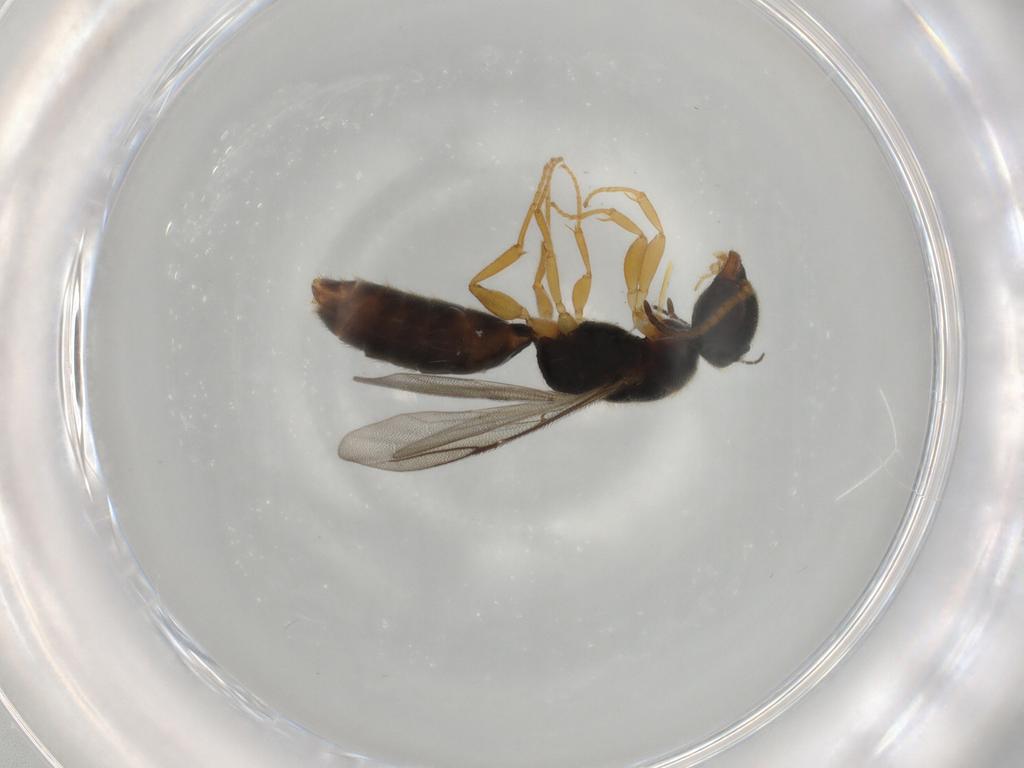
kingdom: Animalia
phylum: Arthropoda
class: Insecta
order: Hymenoptera
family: Bethylidae
